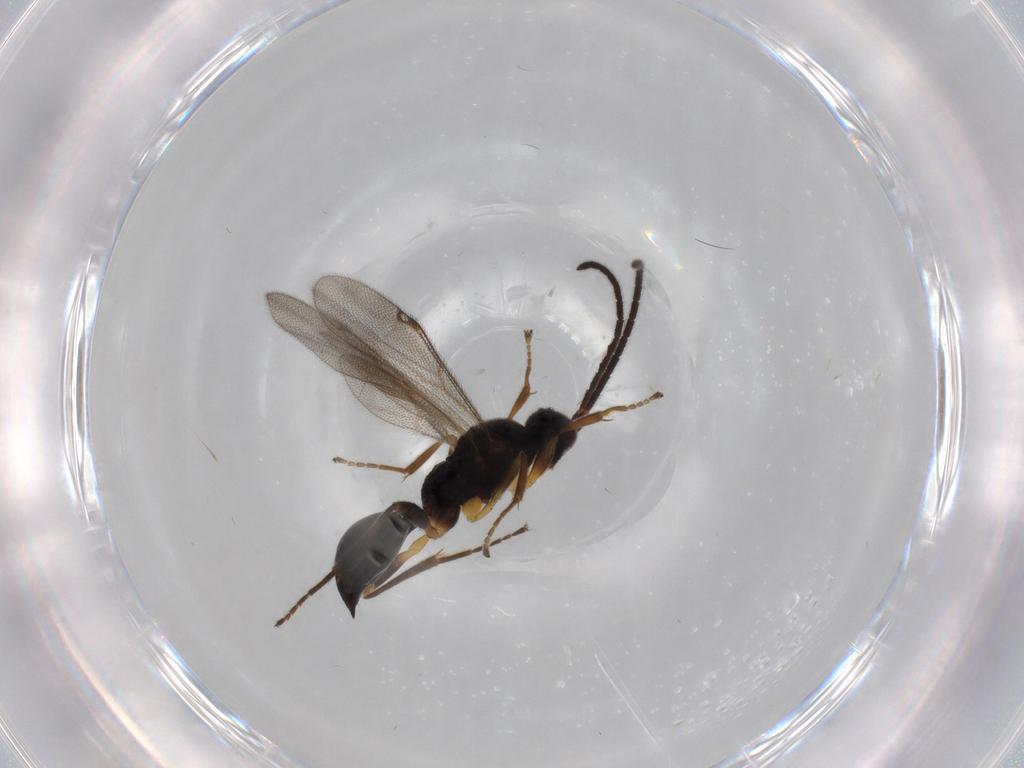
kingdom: Animalia
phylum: Arthropoda
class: Insecta
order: Hymenoptera
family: Proctotrupidae
